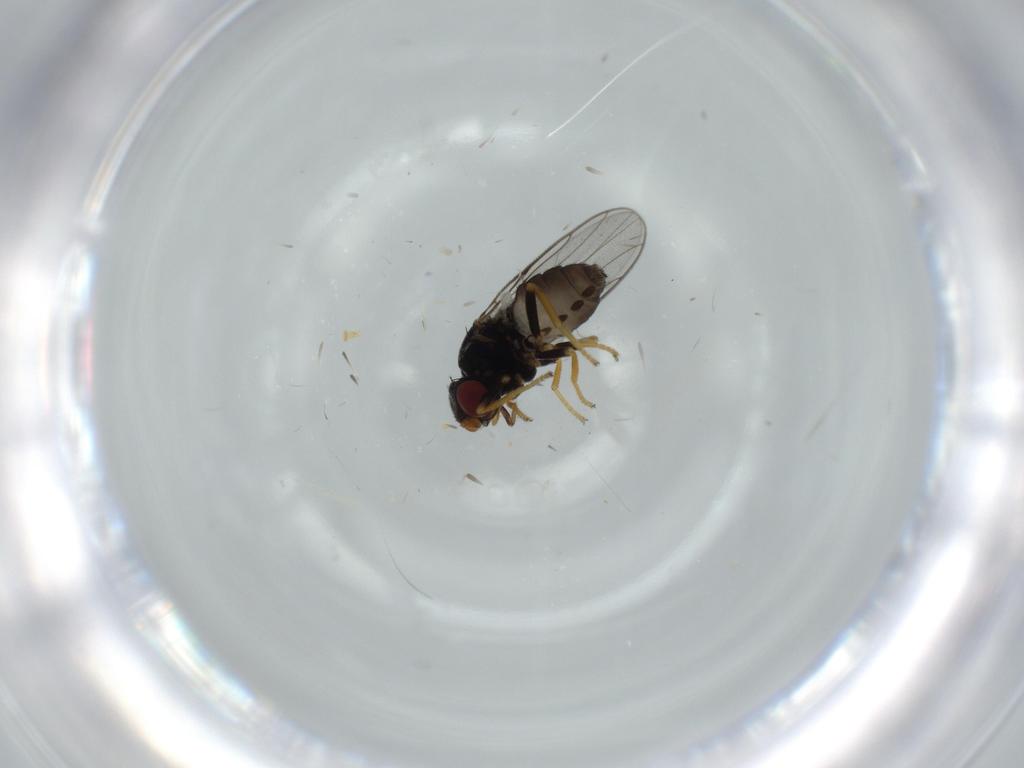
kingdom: Animalia
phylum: Arthropoda
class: Insecta
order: Diptera
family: Chloropidae
